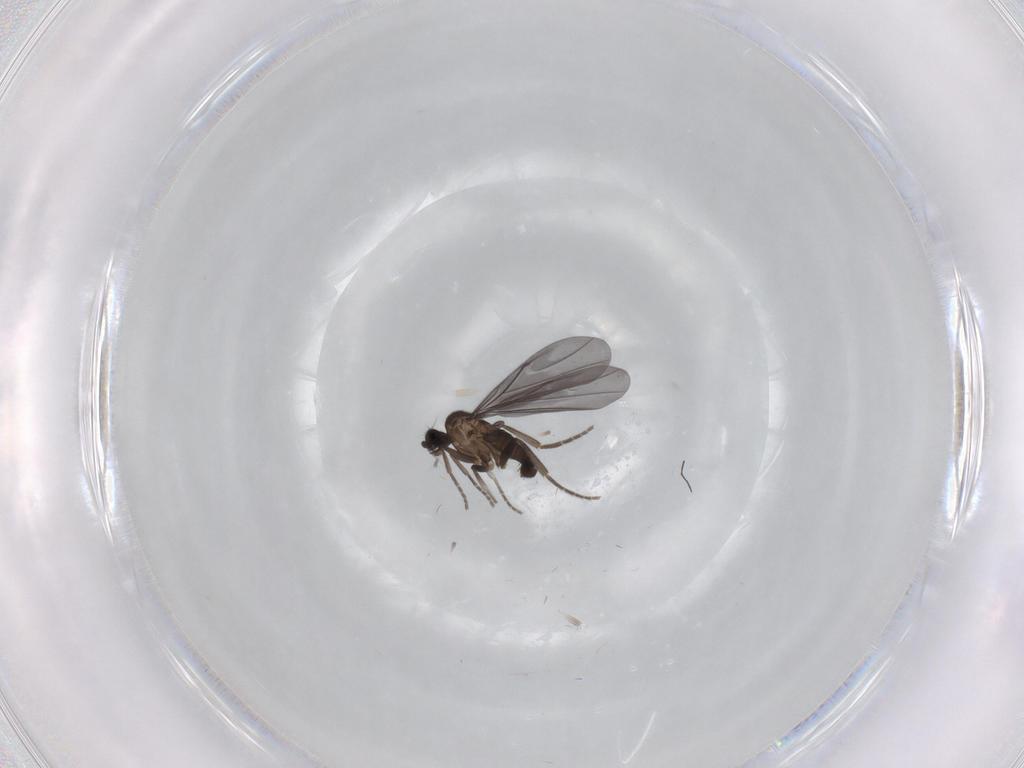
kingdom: Animalia
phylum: Arthropoda
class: Insecta
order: Diptera
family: Phoridae
